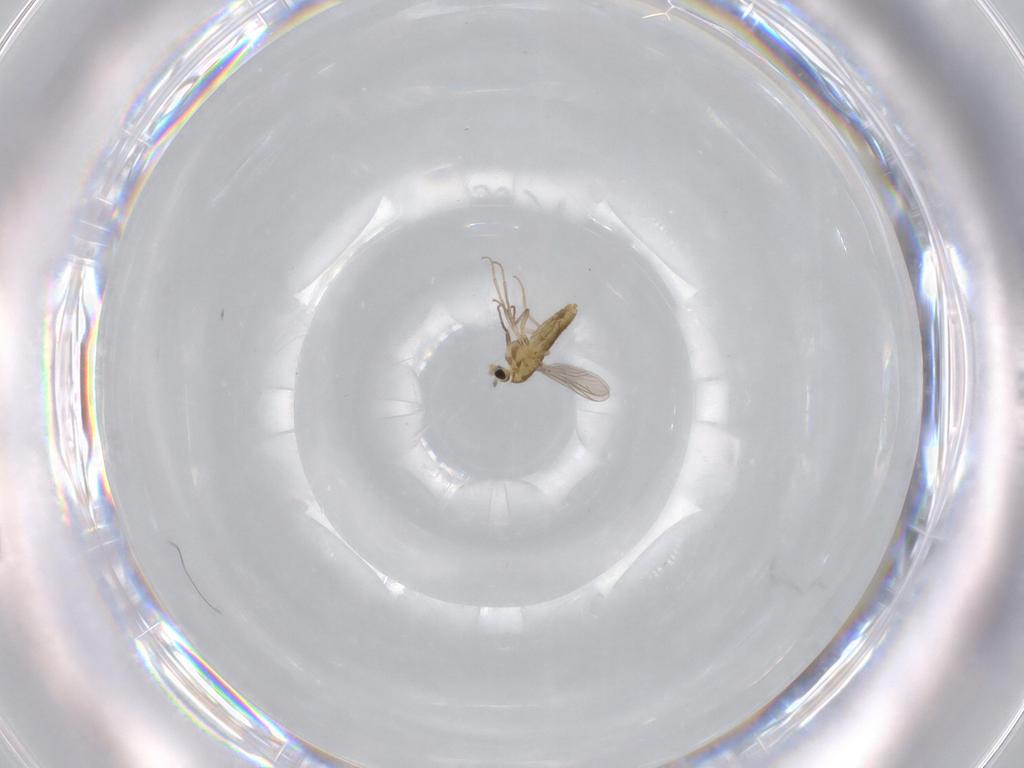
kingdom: Animalia
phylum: Arthropoda
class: Insecta
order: Diptera
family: Chironomidae
